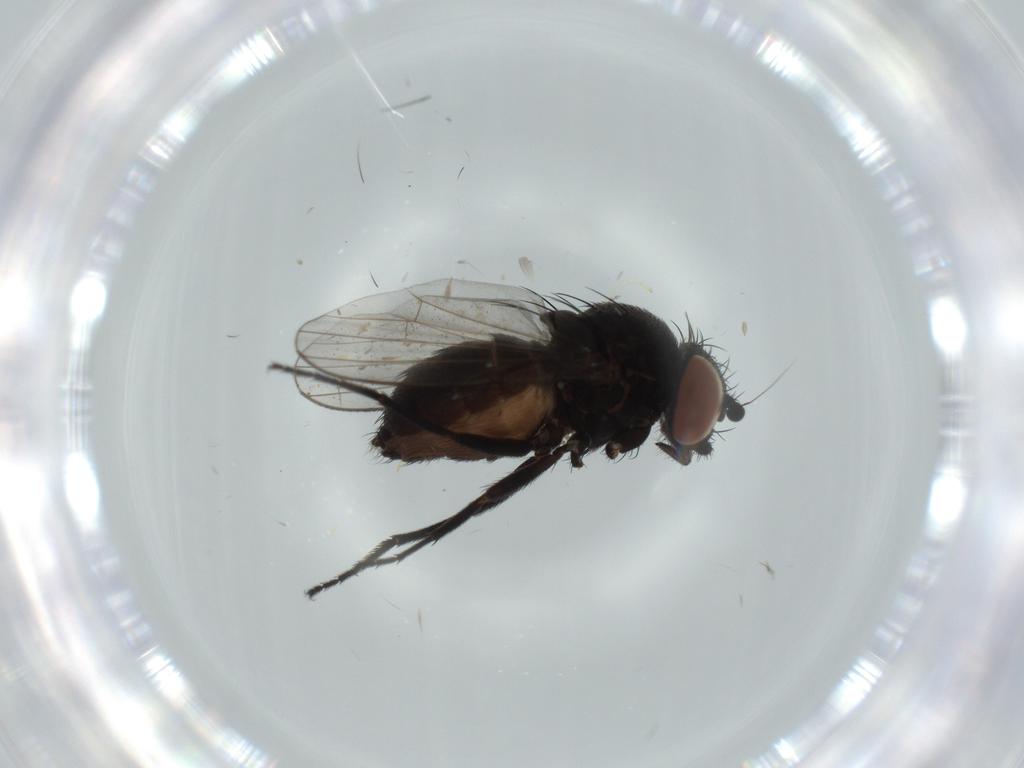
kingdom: Animalia
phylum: Arthropoda
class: Insecta
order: Diptera
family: Milichiidae
